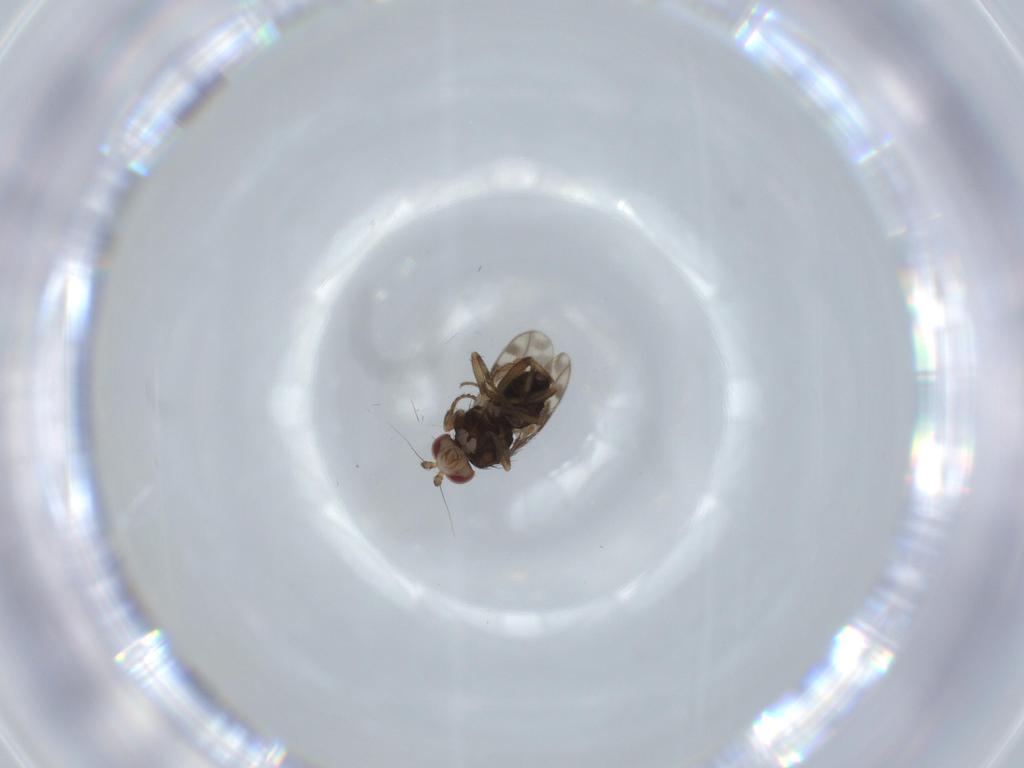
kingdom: Animalia
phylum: Arthropoda
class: Insecta
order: Diptera
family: Sphaeroceridae
